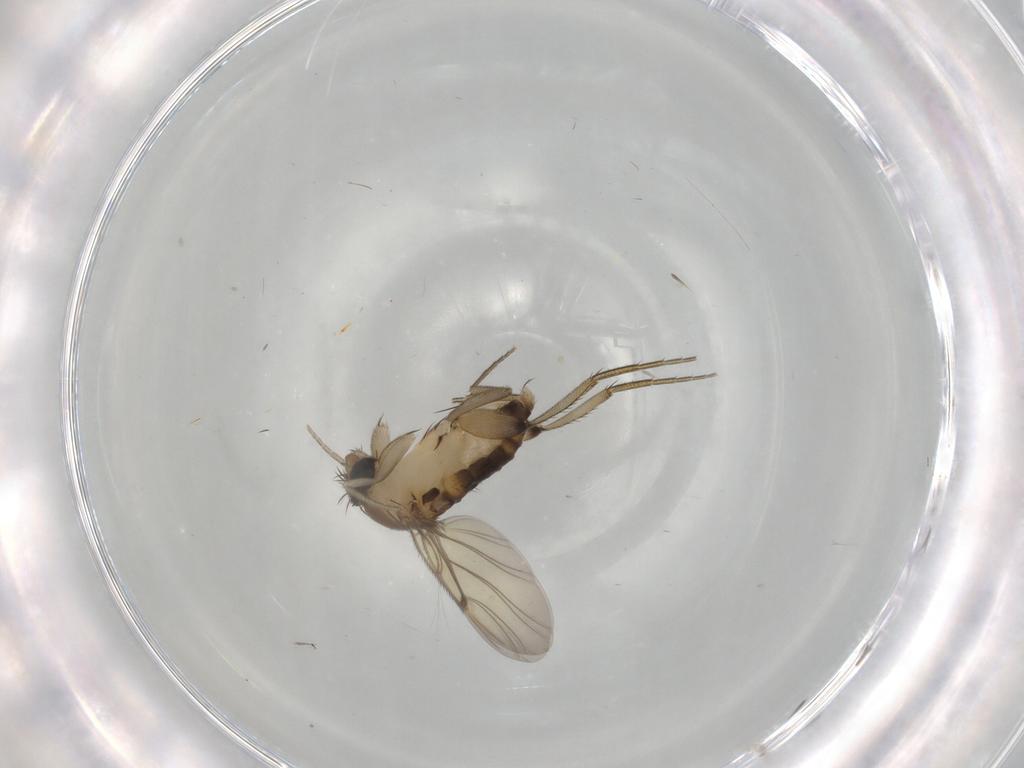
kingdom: Animalia
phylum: Arthropoda
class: Insecta
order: Diptera
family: Phoridae
